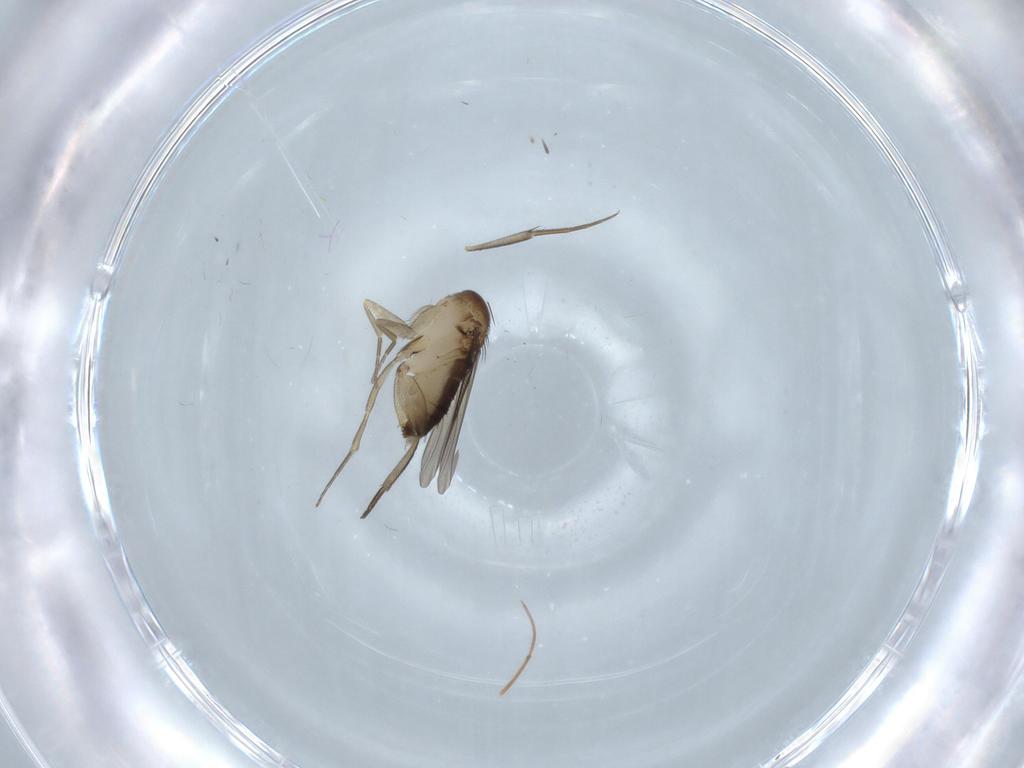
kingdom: Animalia
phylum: Arthropoda
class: Insecta
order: Diptera
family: Phoridae
